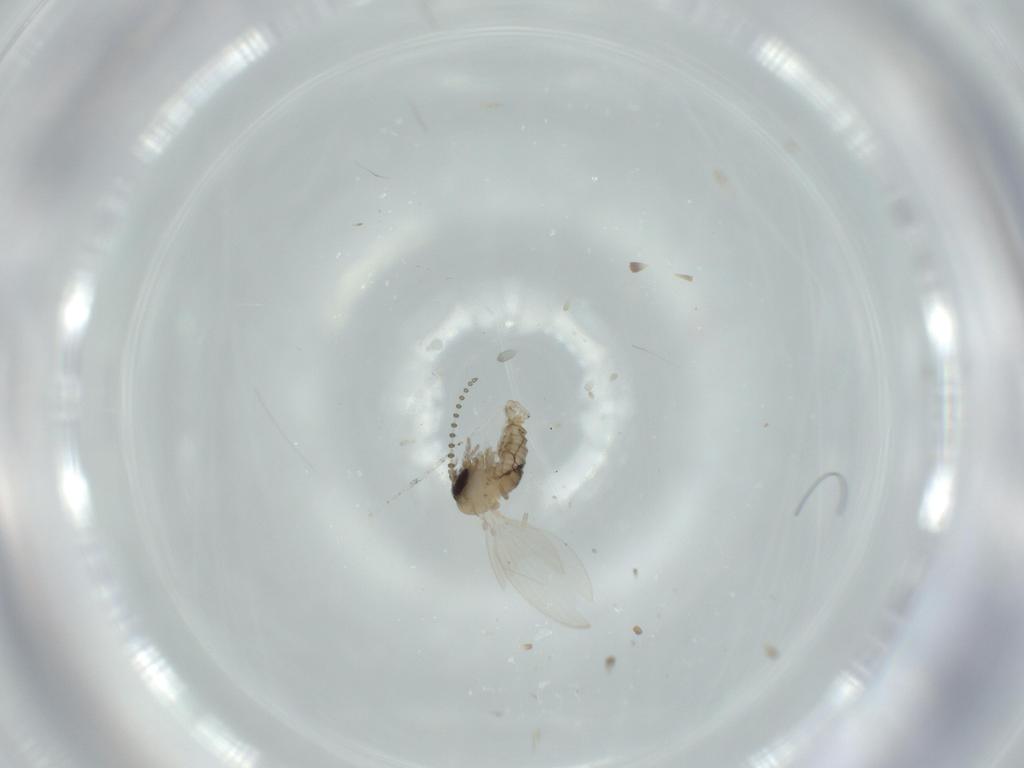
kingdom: Animalia
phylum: Arthropoda
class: Insecta
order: Diptera
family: Psychodidae
